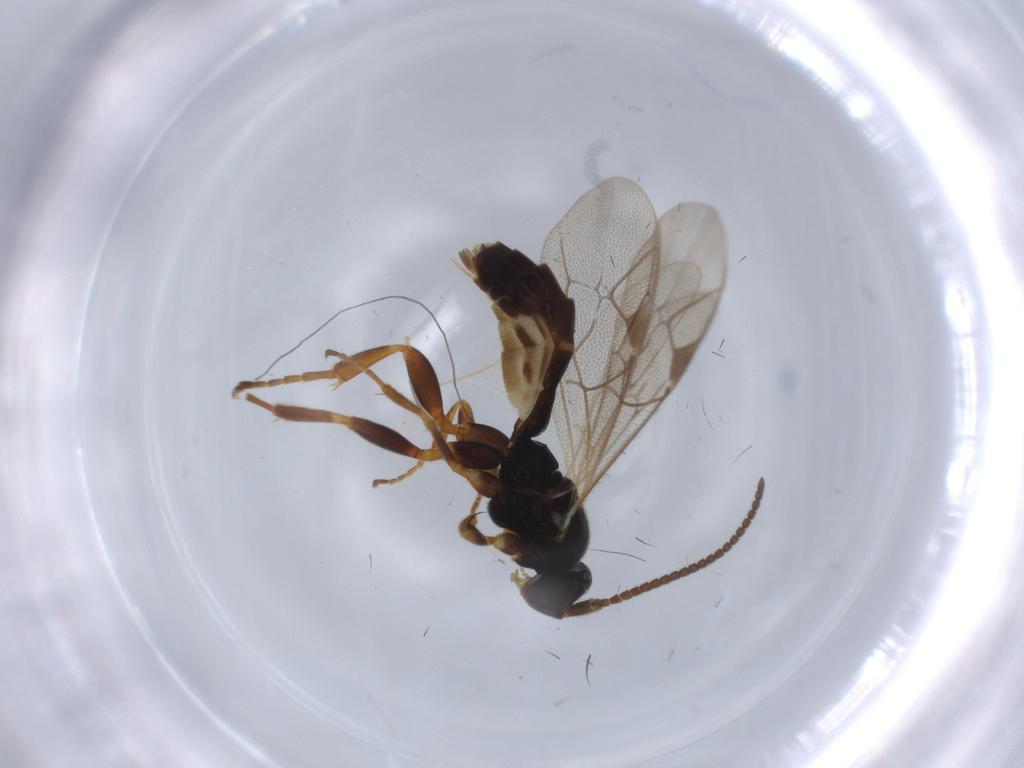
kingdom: Animalia
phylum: Arthropoda
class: Insecta
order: Hymenoptera
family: Ichneumonidae
